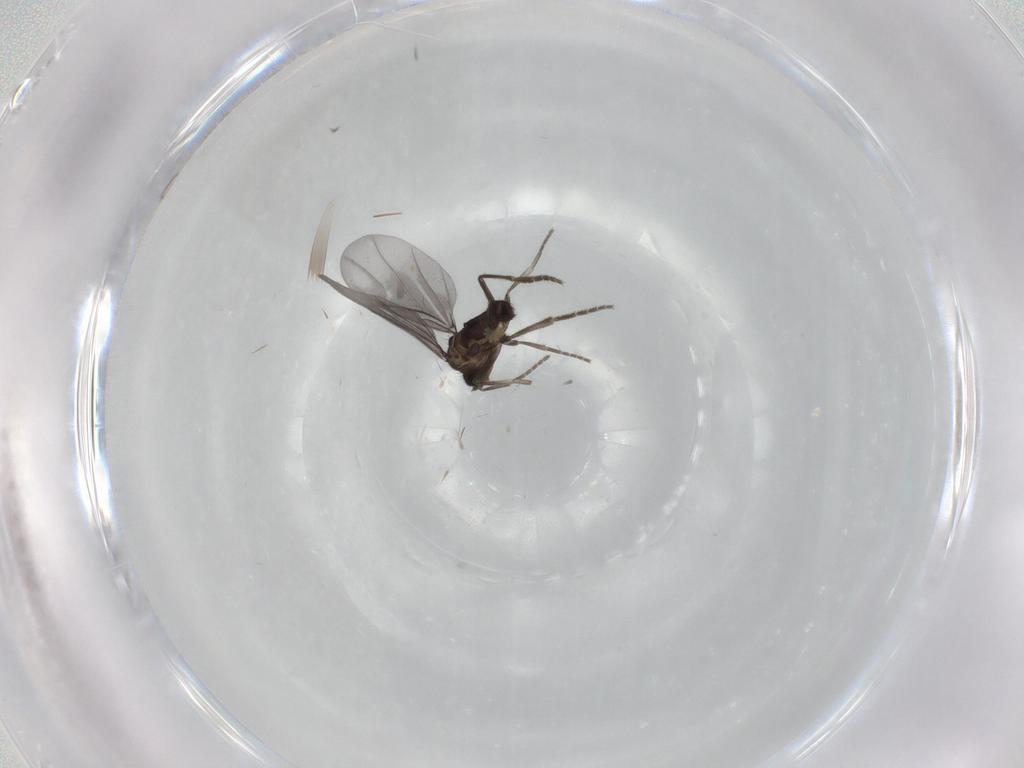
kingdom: Animalia
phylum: Arthropoda
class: Insecta
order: Diptera
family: Phoridae
